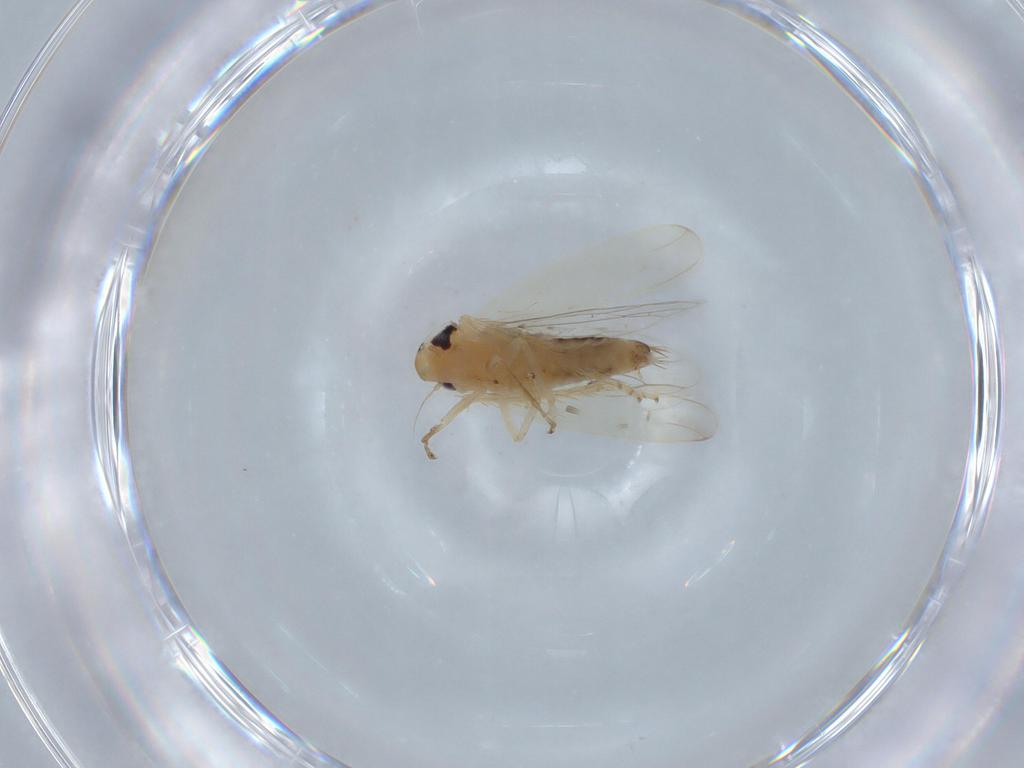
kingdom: Animalia
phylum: Arthropoda
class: Insecta
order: Hemiptera
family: Cicadellidae
